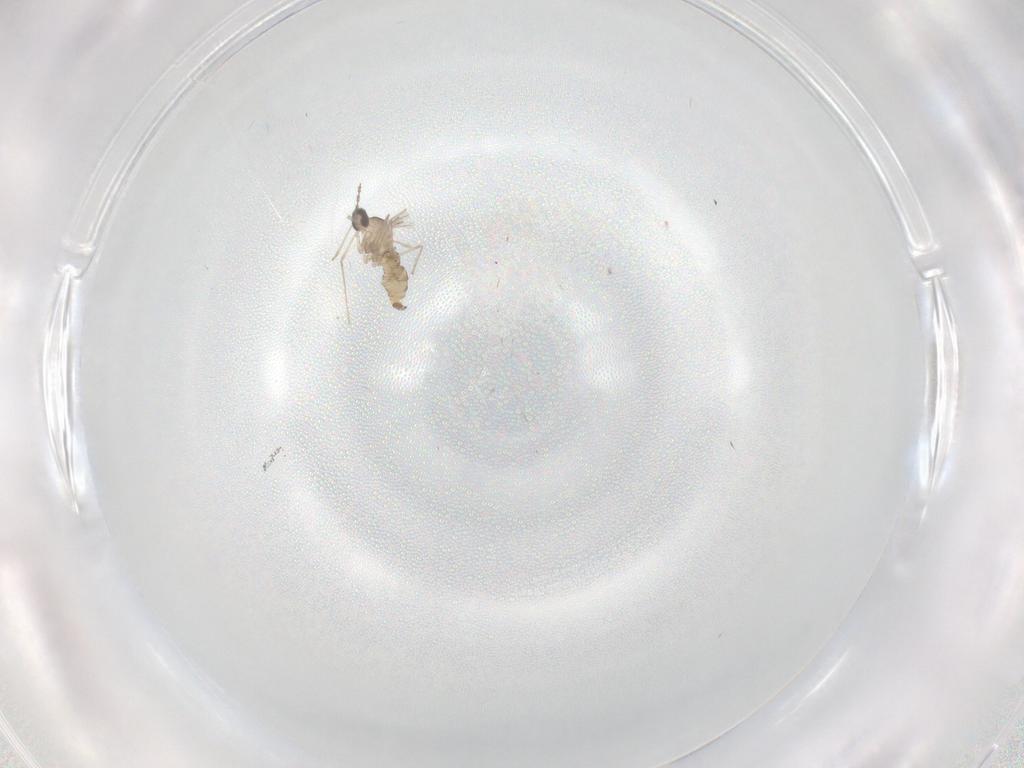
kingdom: Animalia
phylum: Arthropoda
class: Insecta
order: Diptera
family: Cecidomyiidae
